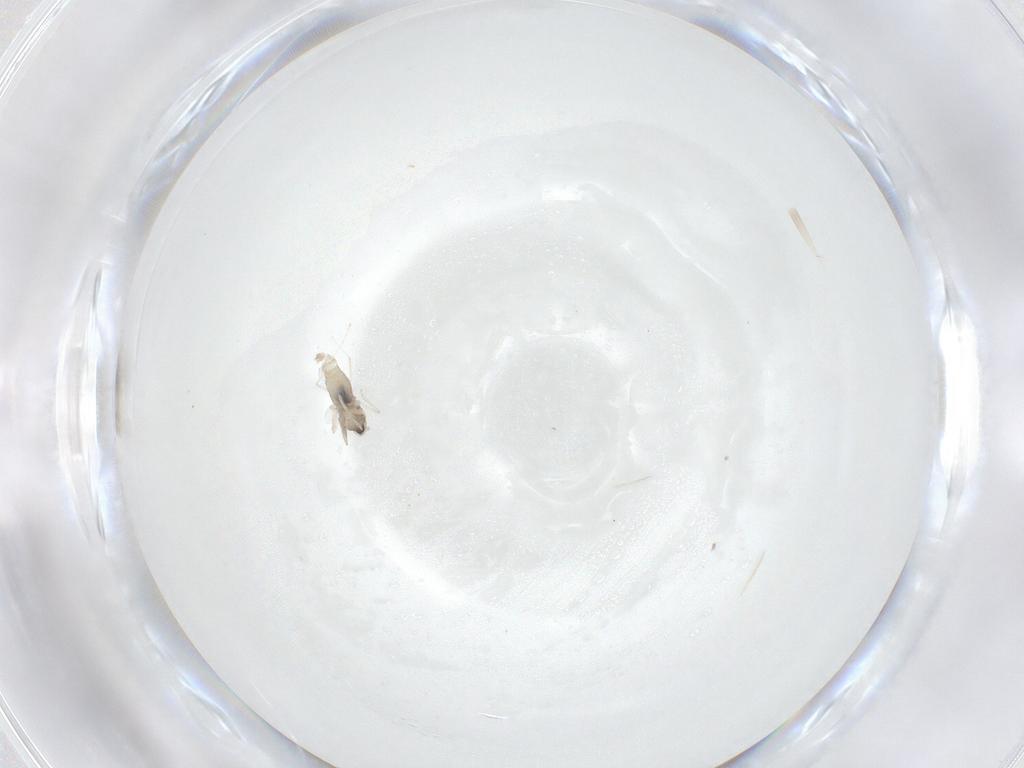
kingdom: Animalia
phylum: Arthropoda
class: Insecta
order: Diptera
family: Cecidomyiidae
